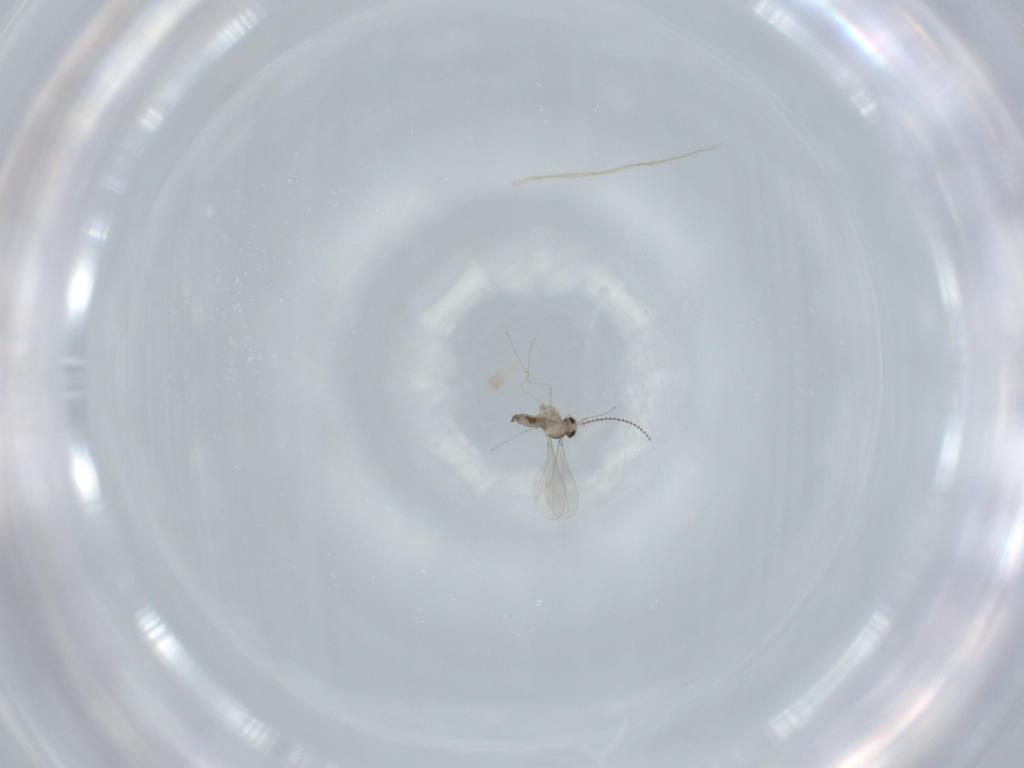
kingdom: Animalia
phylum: Arthropoda
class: Insecta
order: Diptera
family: Cecidomyiidae
